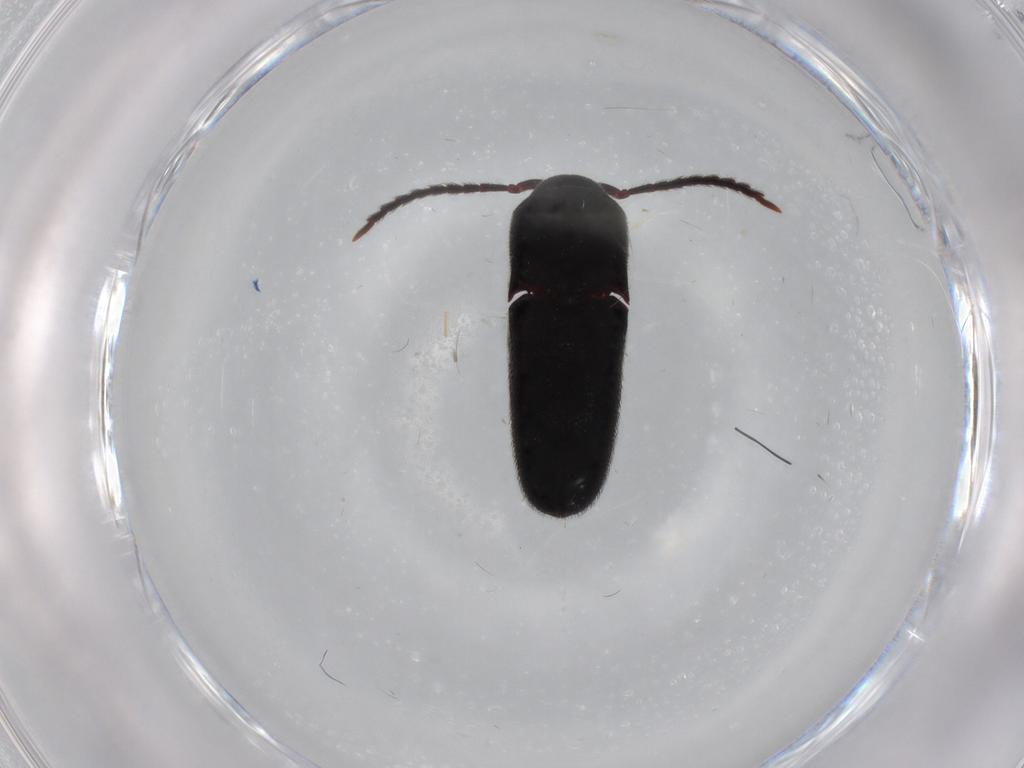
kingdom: Animalia
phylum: Arthropoda
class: Insecta
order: Coleoptera
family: Eucnemidae
